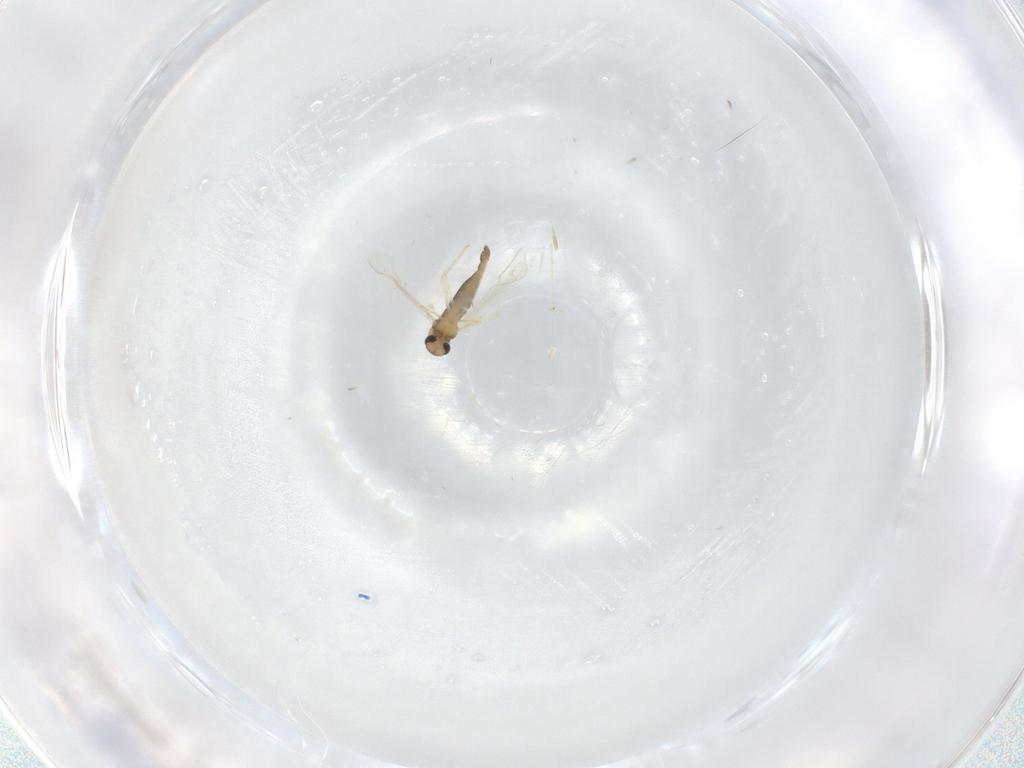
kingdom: Animalia
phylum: Arthropoda
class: Insecta
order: Diptera
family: Chironomidae
